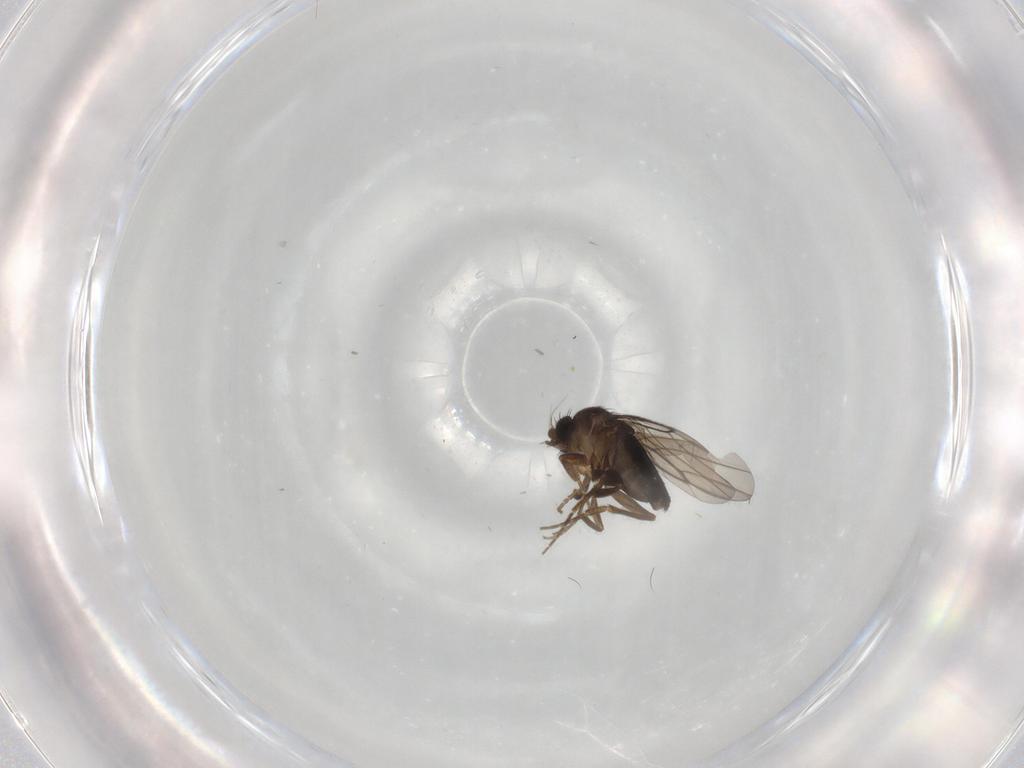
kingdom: Animalia
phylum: Arthropoda
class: Insecta
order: Diptera
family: Phoridae
